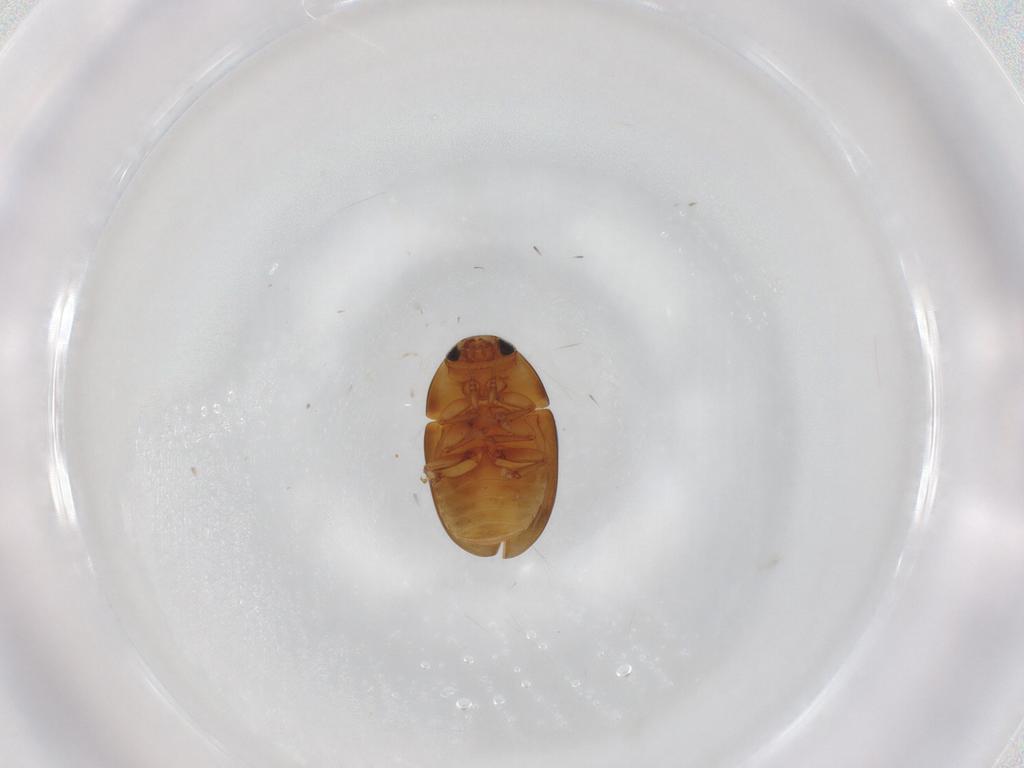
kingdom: Animalia
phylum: Arthropoda
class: Insecta
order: Coleoptera
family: Phalacridae
